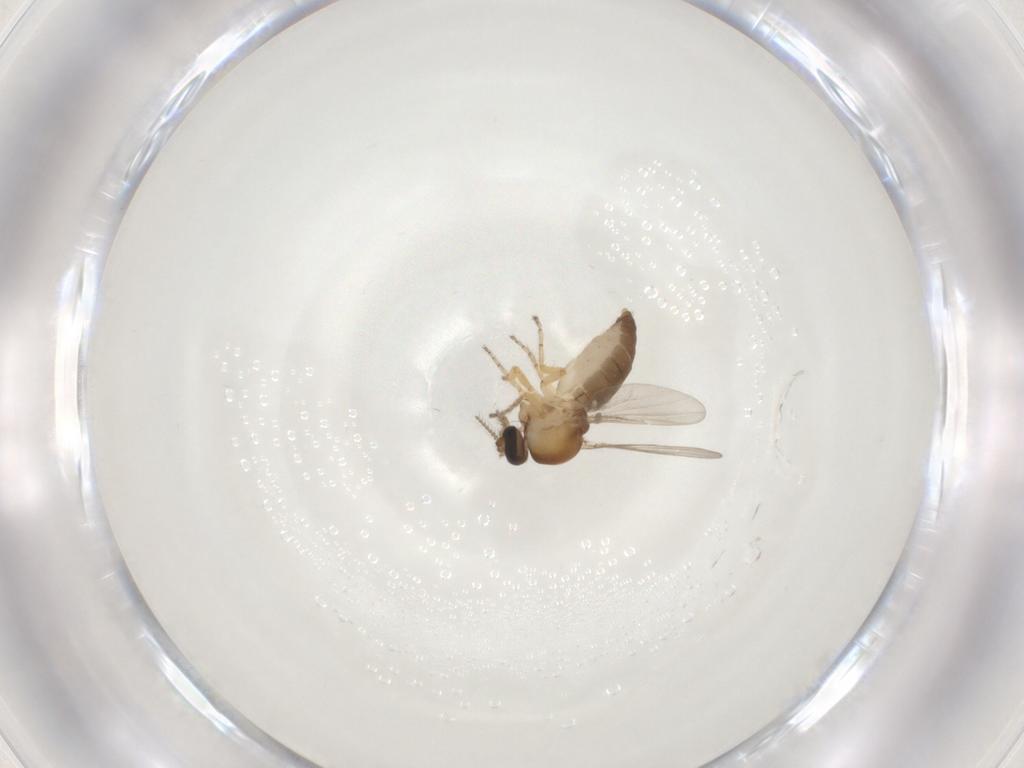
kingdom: Animalia
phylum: Arthropoda
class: Insecta
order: Diptera
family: Ceratopogonidae
